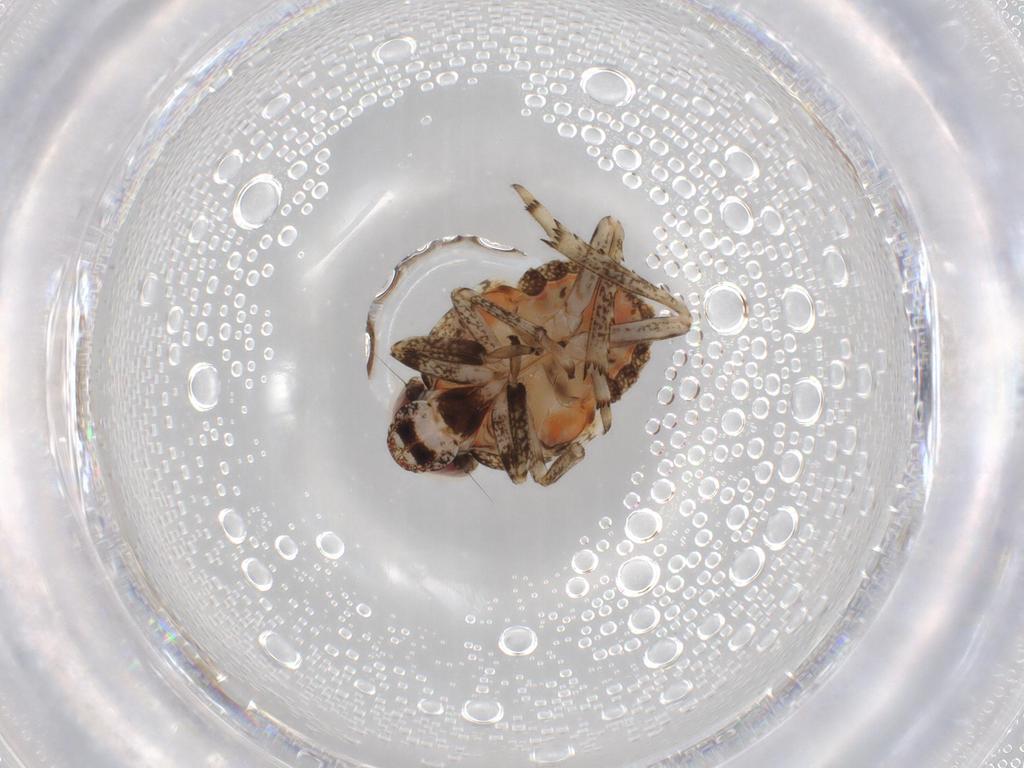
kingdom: Animalia
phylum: Arthropoda
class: Insecta
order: Hemiptera
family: Issidae
